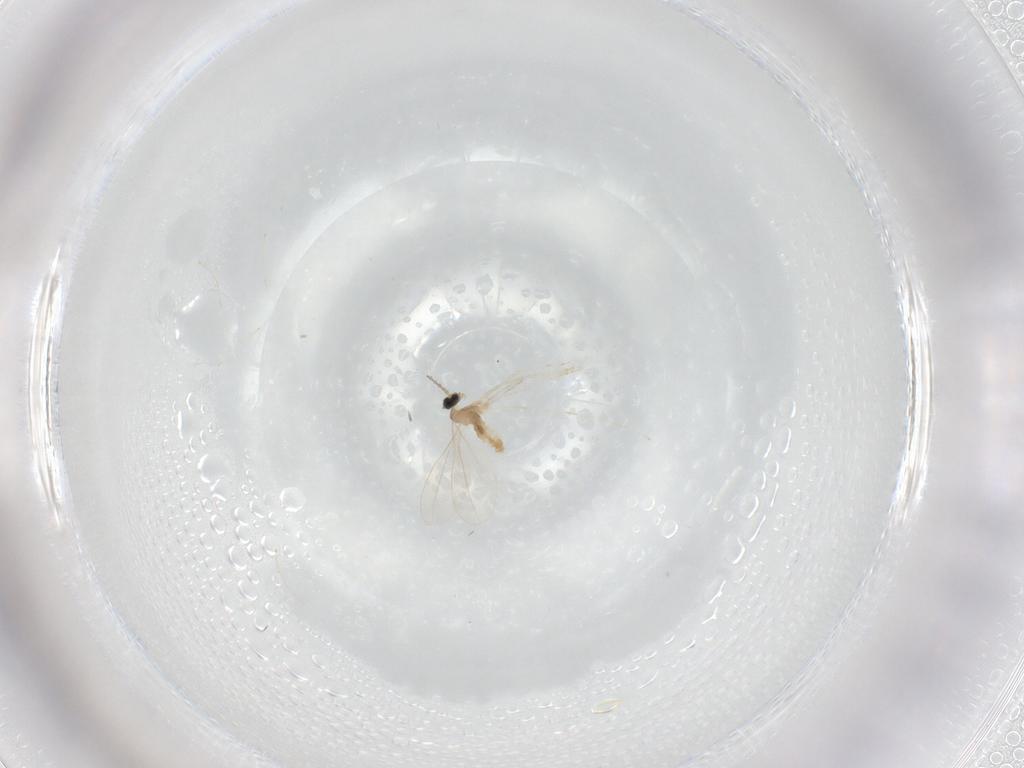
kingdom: Animalia
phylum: Arthropoda
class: Insecta
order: Diptera
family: Cecidomyiidae
